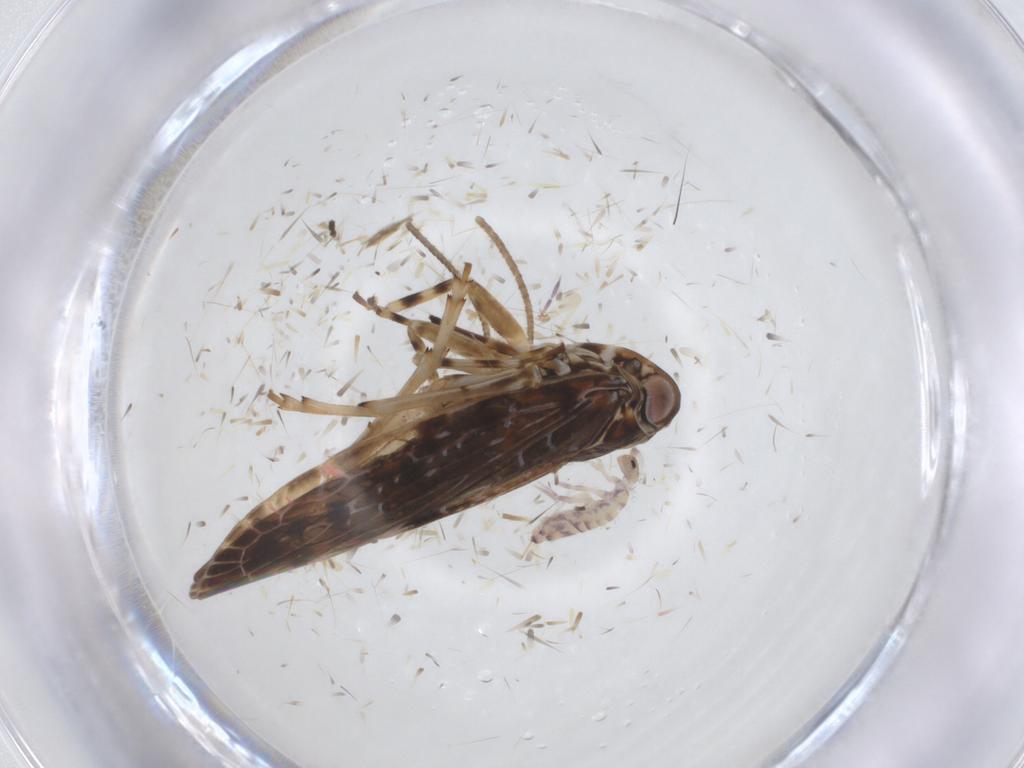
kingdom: Animalia
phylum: Arthropoda
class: Collembola
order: Entomobryomorpha
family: Entomobryidae
